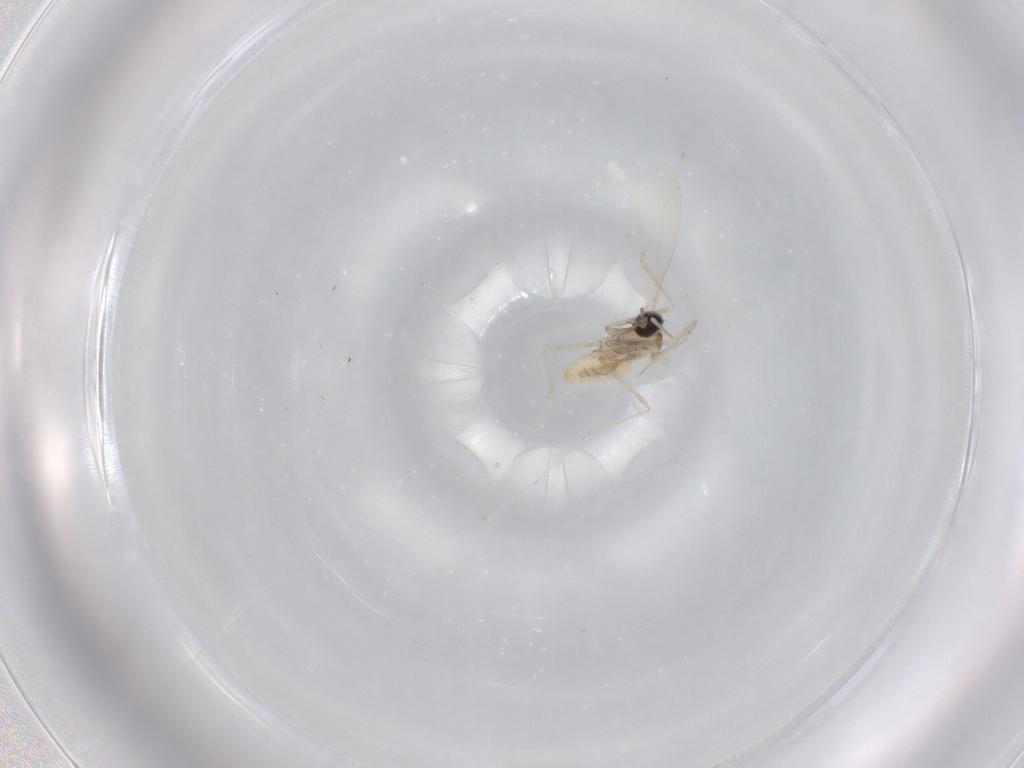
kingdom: Animalia
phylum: Arthropoda
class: Insecta
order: Diptera
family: Cecidomyiidae
